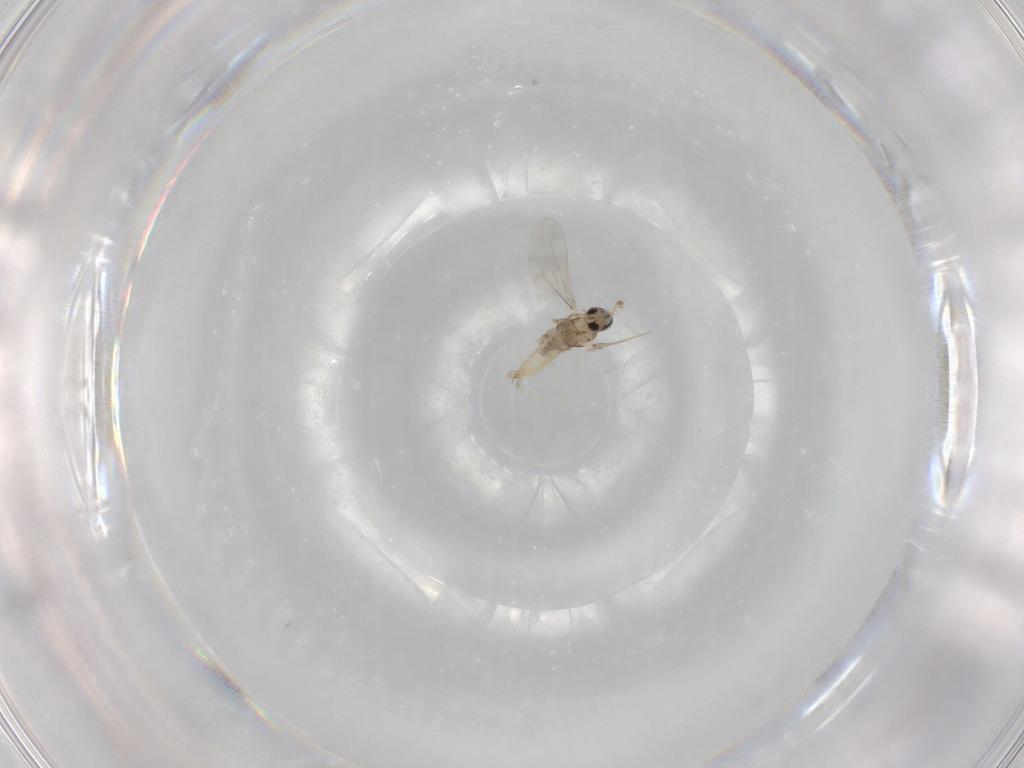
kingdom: Animalia
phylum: Arthropoda
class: Insecta
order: Diptera
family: Cecidomyiidae
